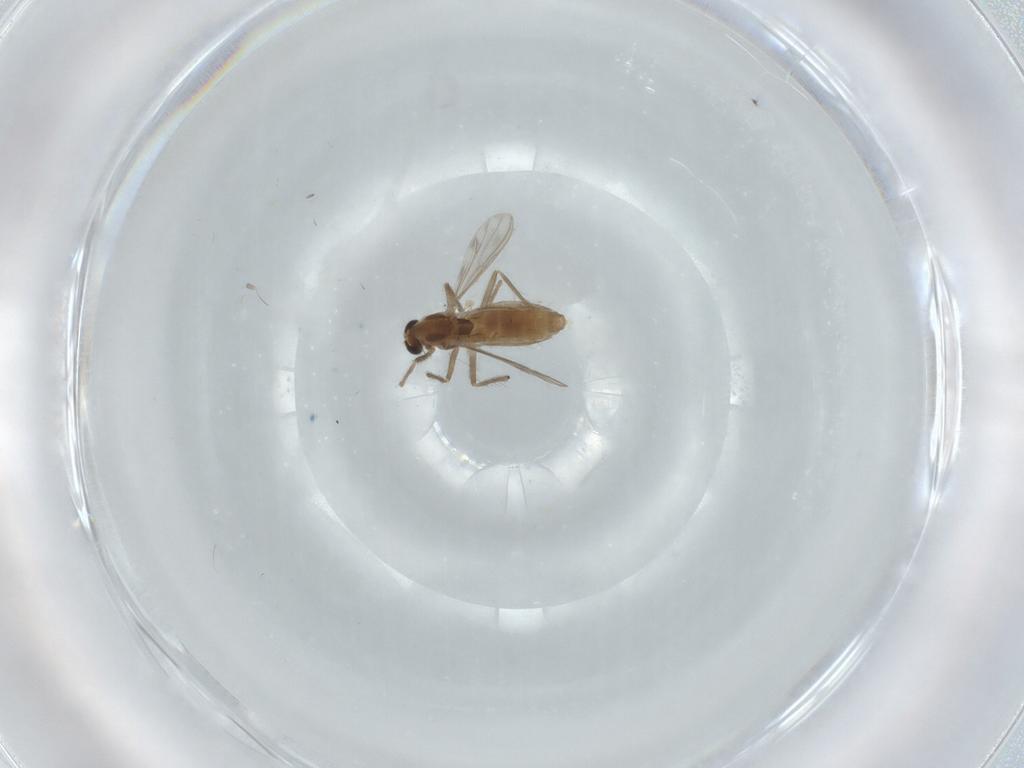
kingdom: Animalia
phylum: Arthropoda
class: Insecta
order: Diptera
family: Chironomidae
